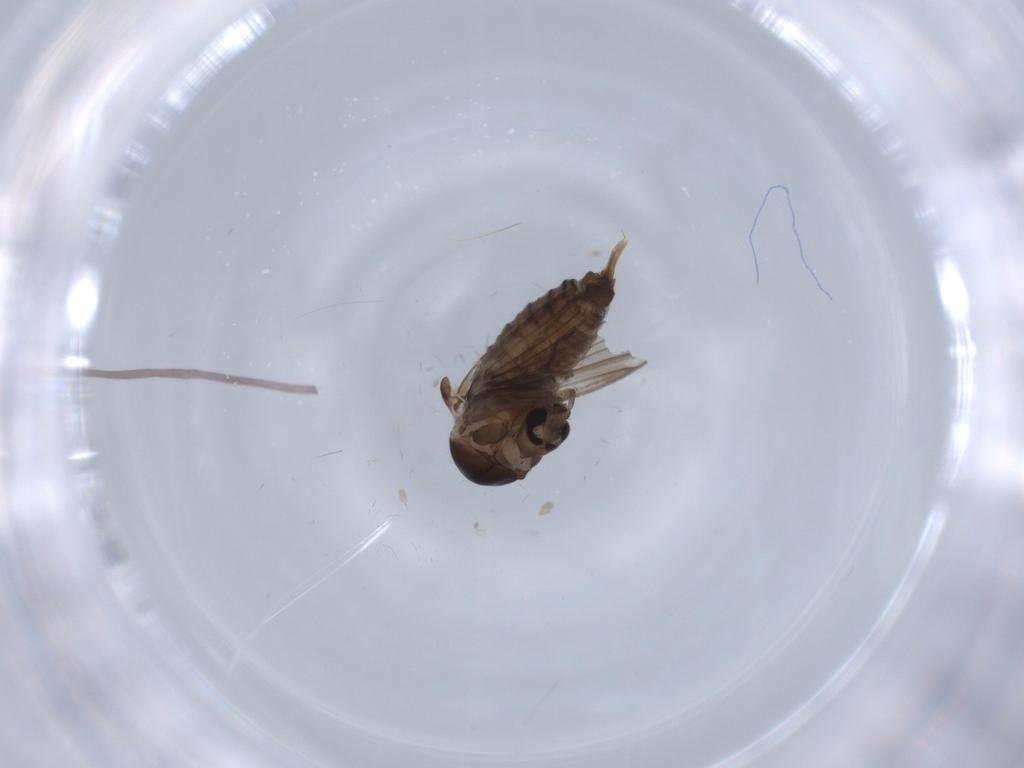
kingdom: Animalia
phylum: Arthropoda
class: Insecta
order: Diptera
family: Psychodidae
